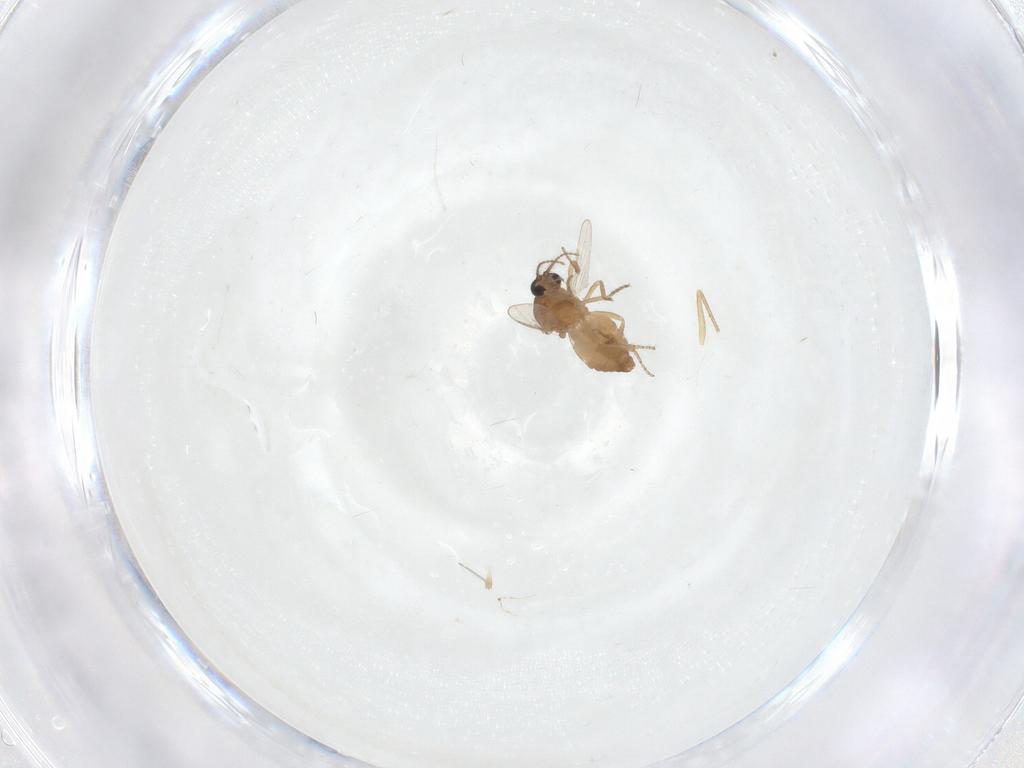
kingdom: Animalia
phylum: Arthropoda
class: Insecta
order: Diptera
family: Ceratopogonidae
